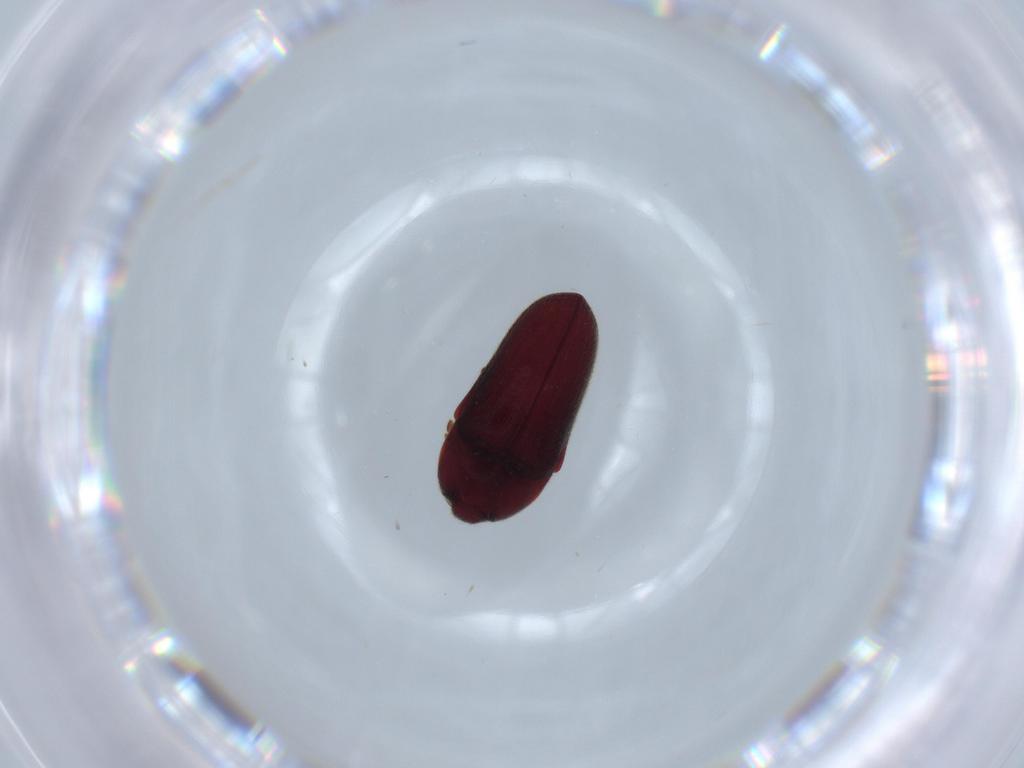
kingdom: Animalia
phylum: Arthropoda
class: Insecta
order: Coleoptera
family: Throscidae
